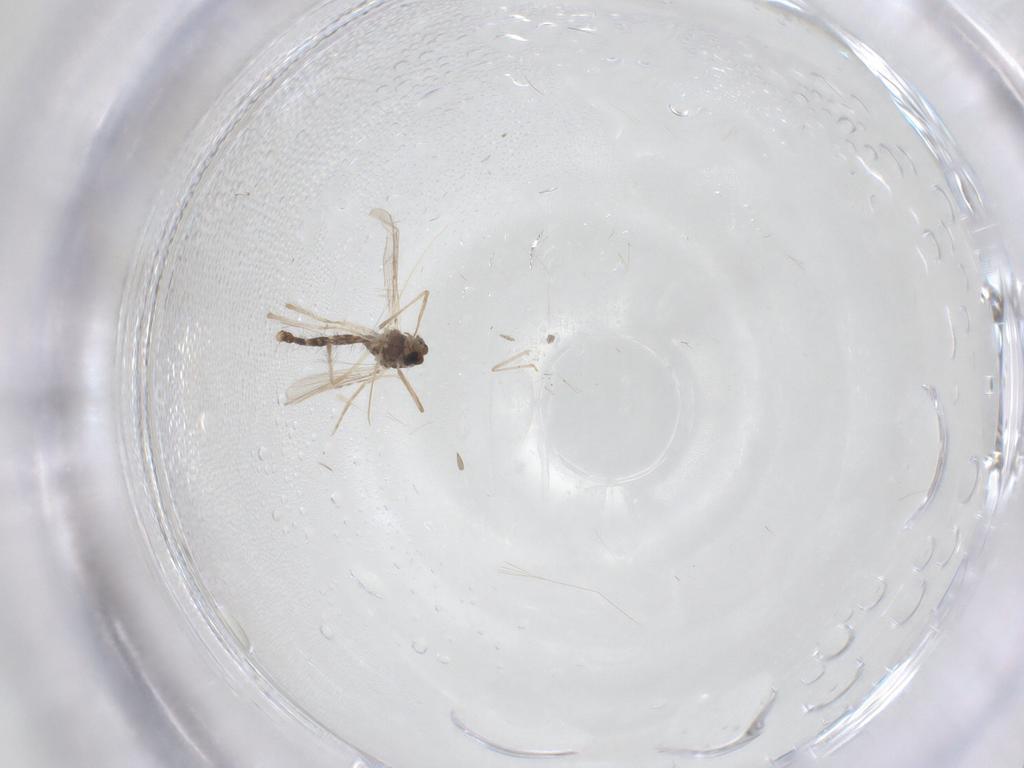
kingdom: Animalia
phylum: Arthropoda
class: Insecta
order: Diptera
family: Chironomidae
